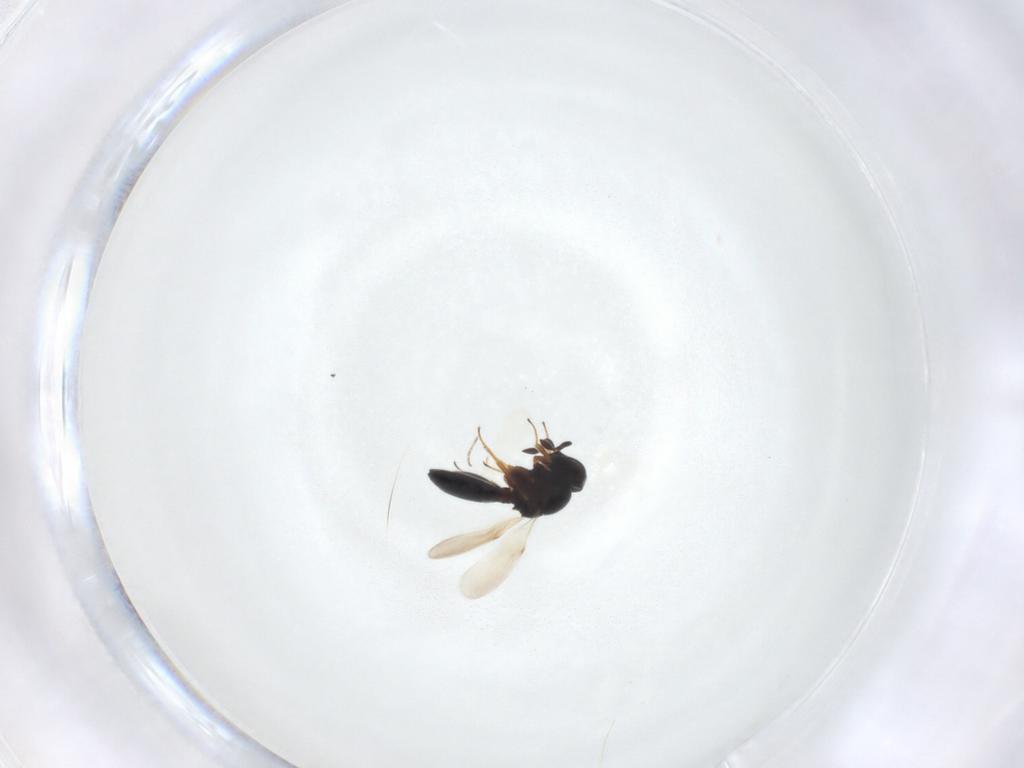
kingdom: Animalia
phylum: Arthropoda
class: Insecta
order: Hymenoptera
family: Scelionidae
